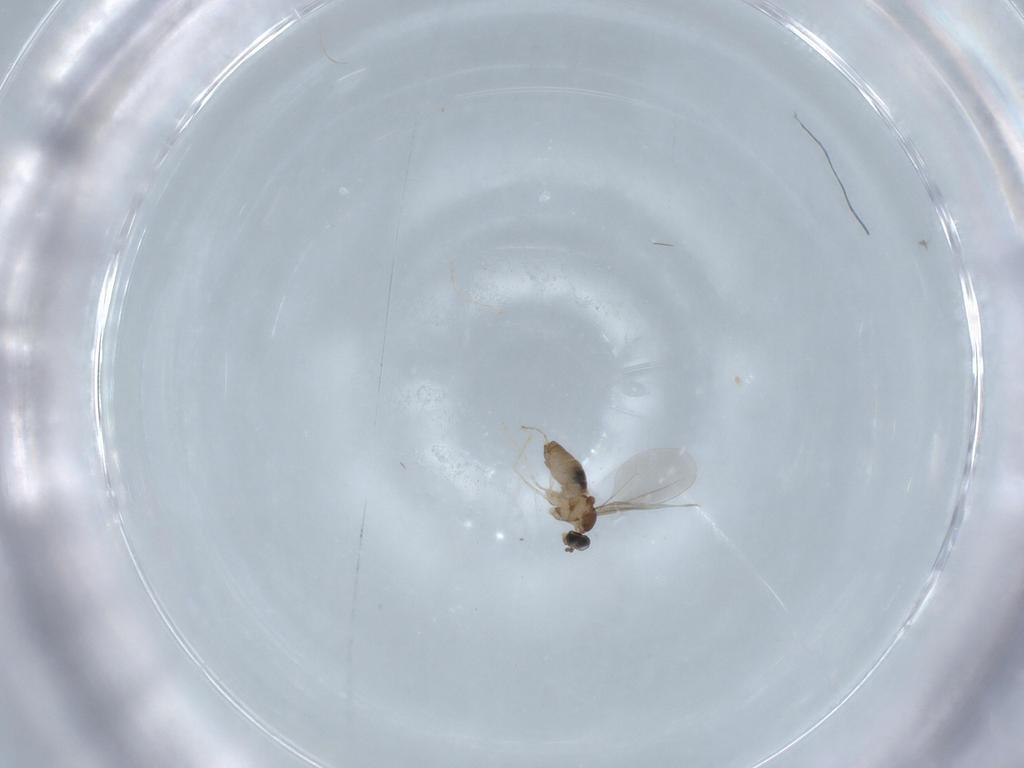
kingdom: Animalia
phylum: Arthropoda
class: Insecta
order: Diptera
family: Cecidomyiidae
